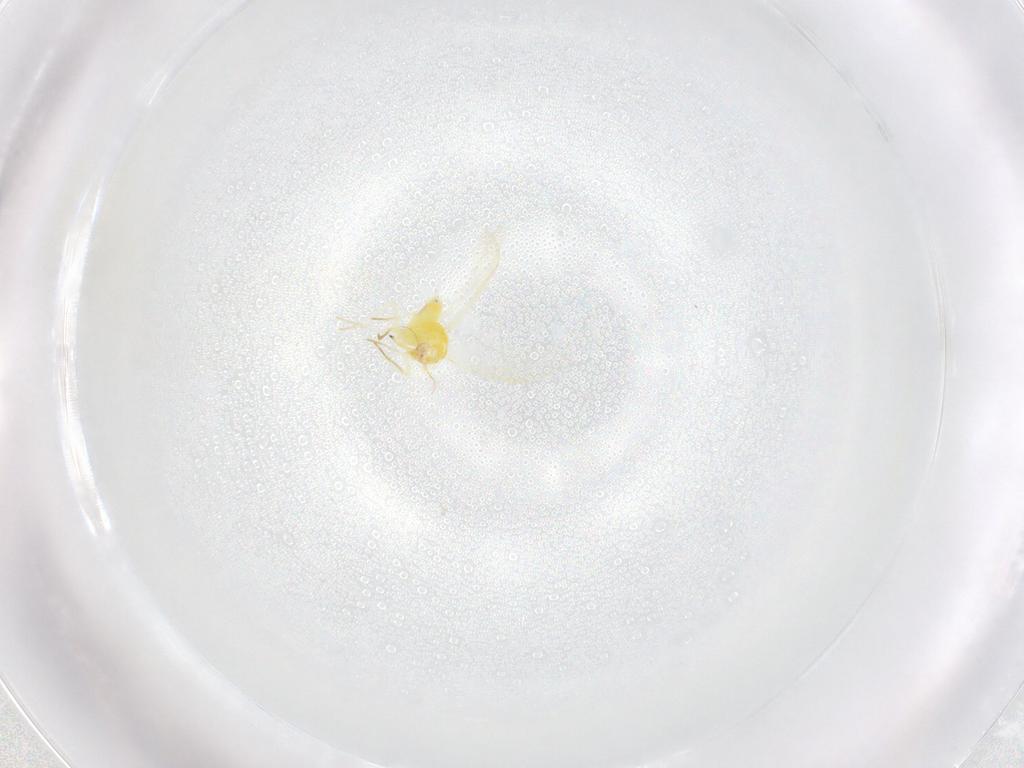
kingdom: Animalia
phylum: Arthropoda
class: Insecta
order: Hemiptera
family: Aleyrodidae
